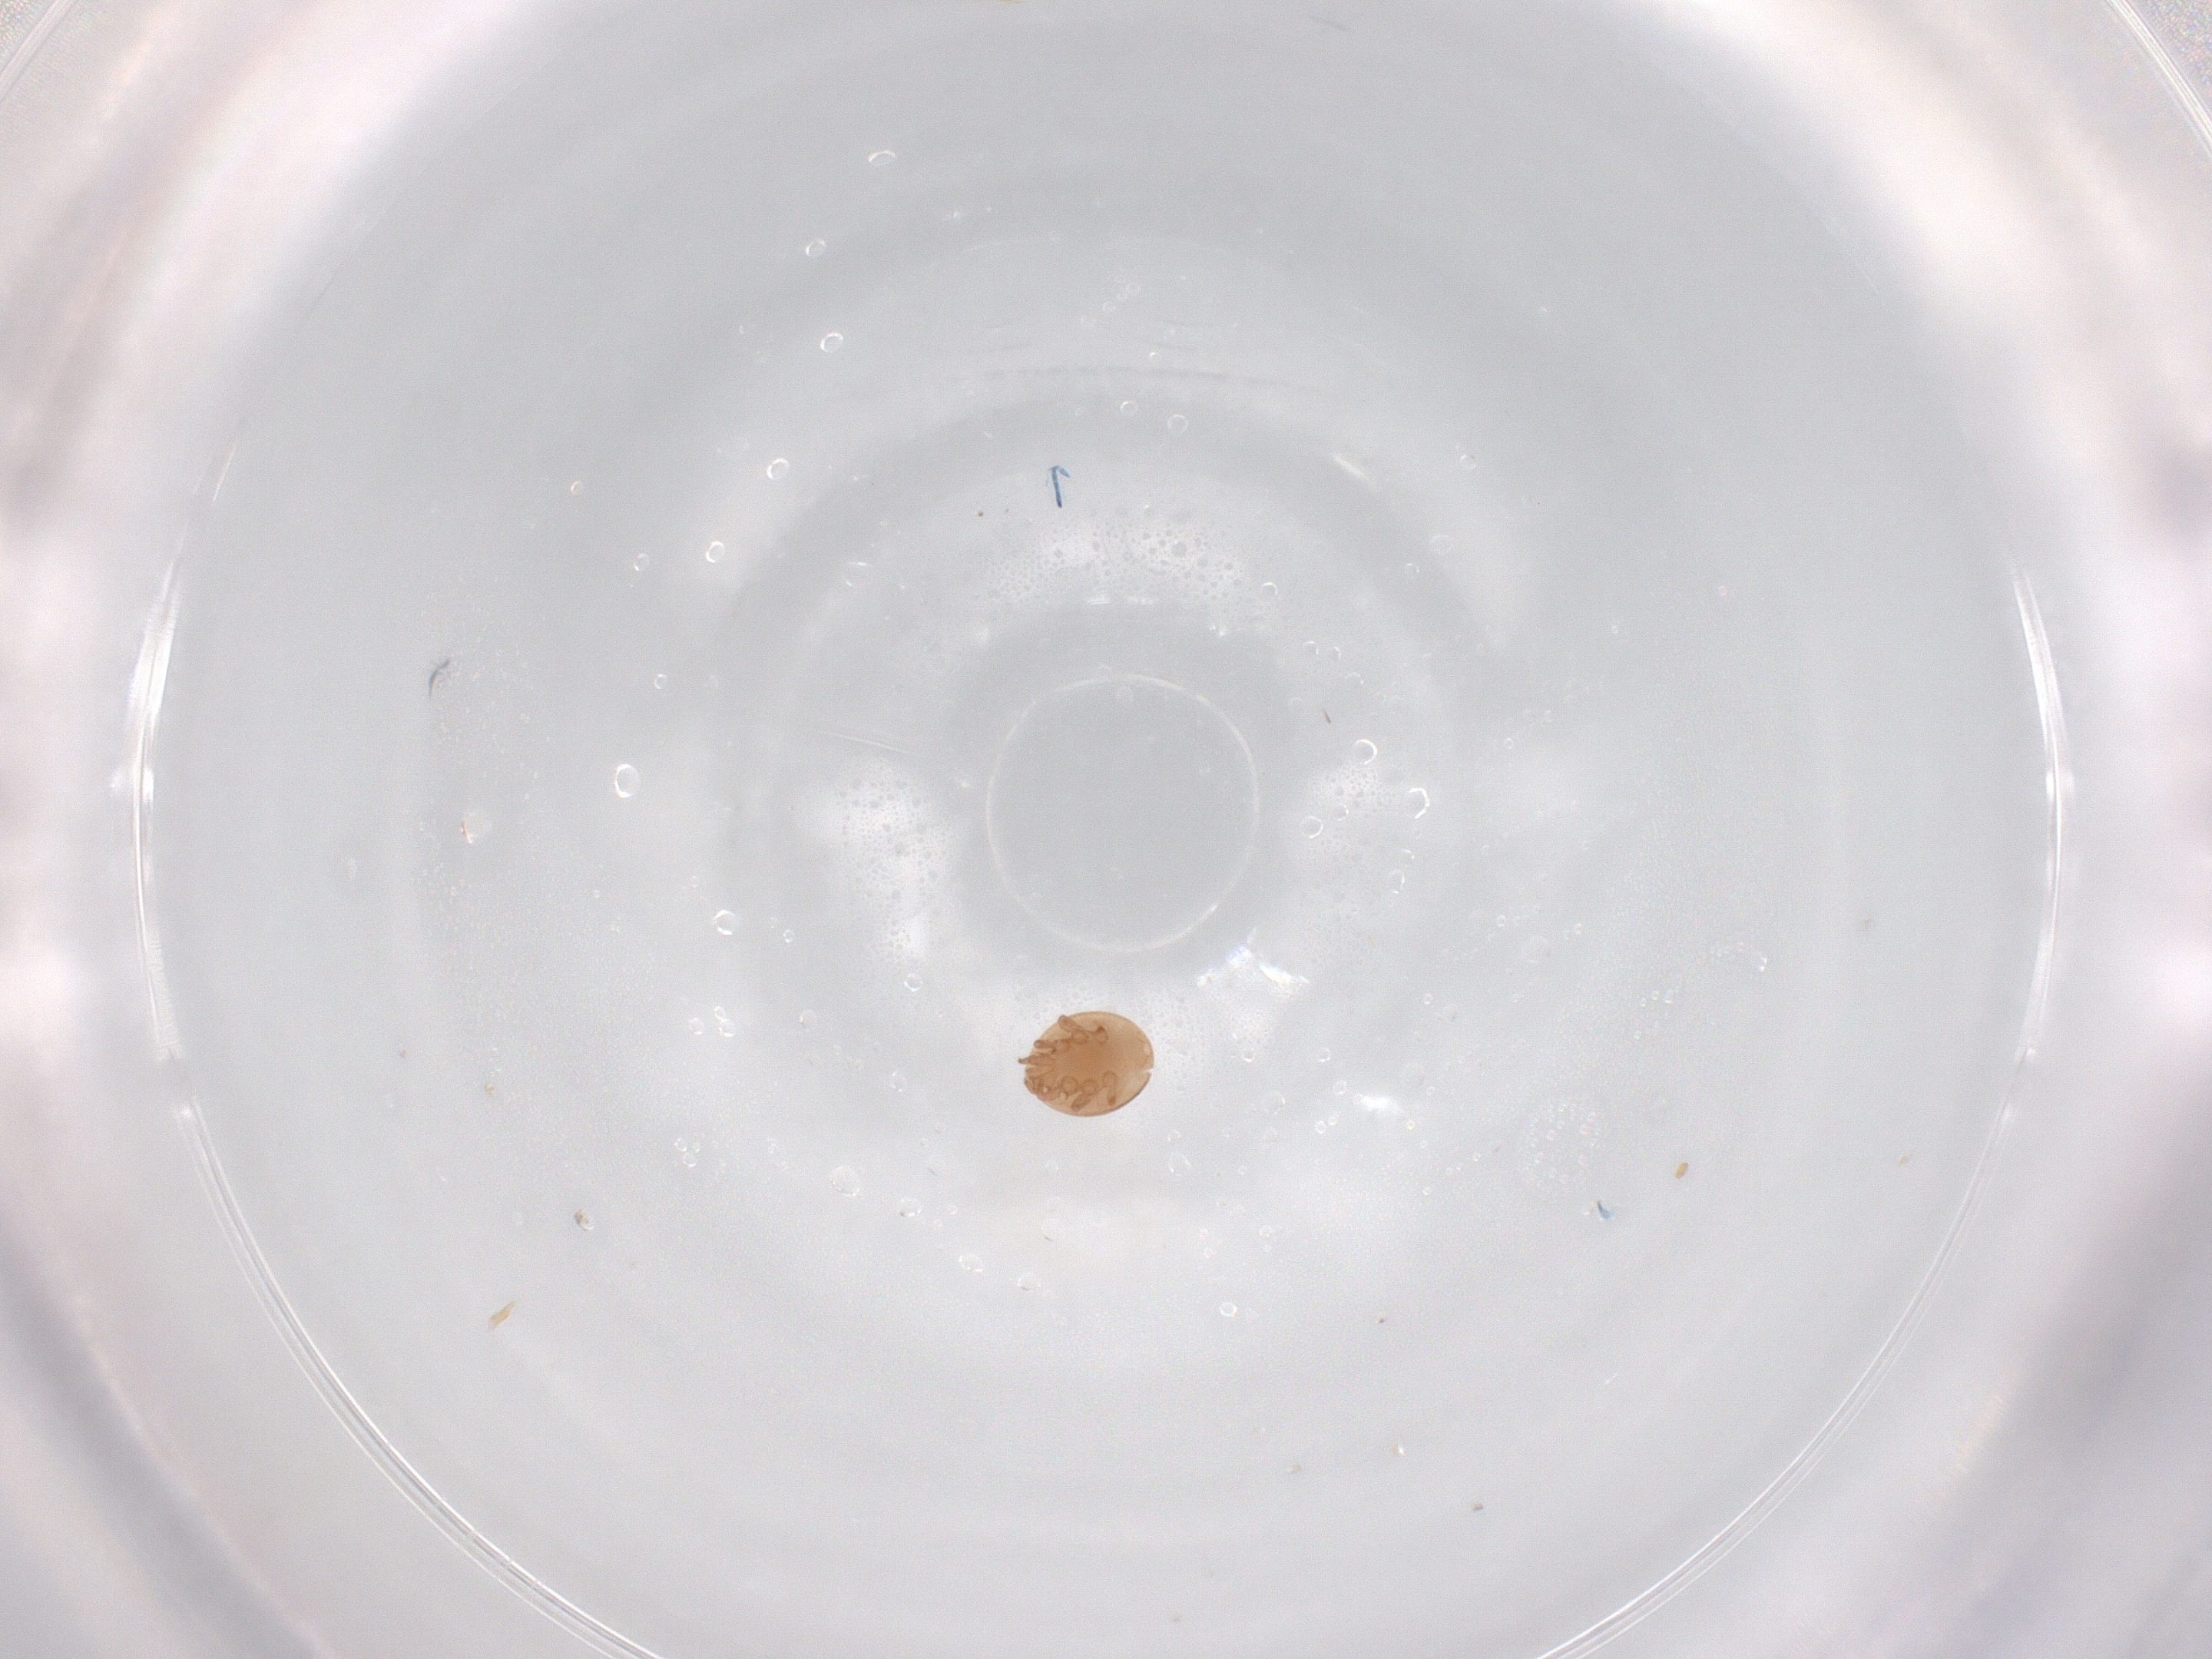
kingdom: Animalia
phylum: Arthropoda
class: Arachnida
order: Mesostigmata
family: Trematuridae
